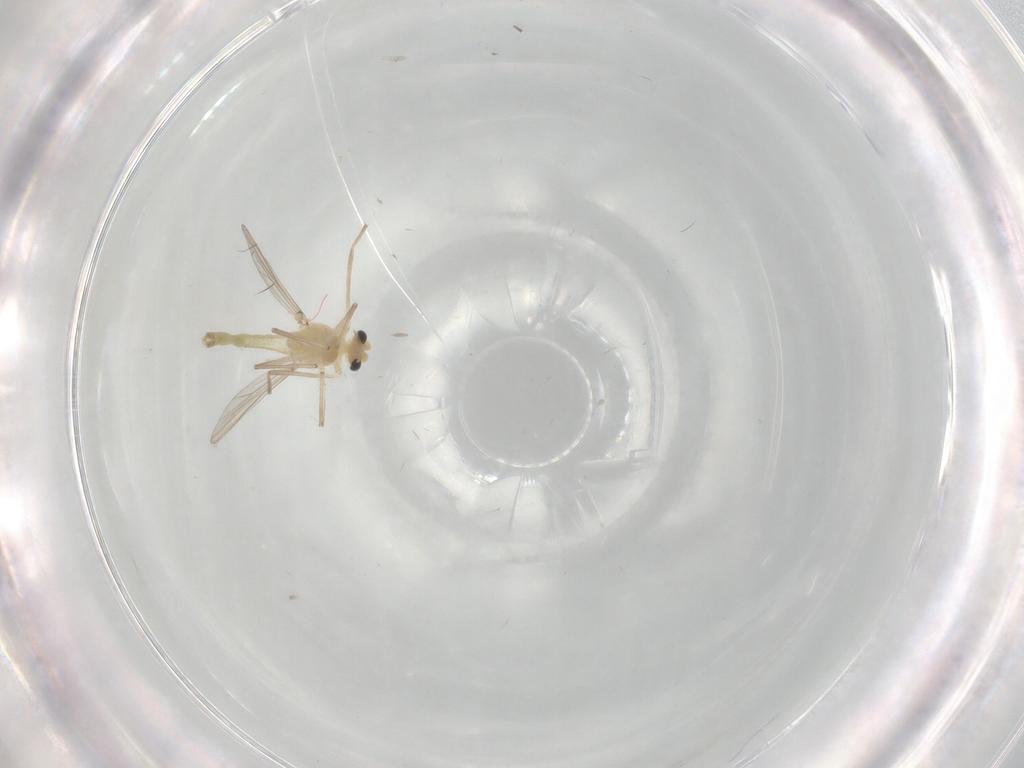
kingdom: Animalia
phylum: Arthropoda
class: Insecta
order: Diptera
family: Chironomidae
